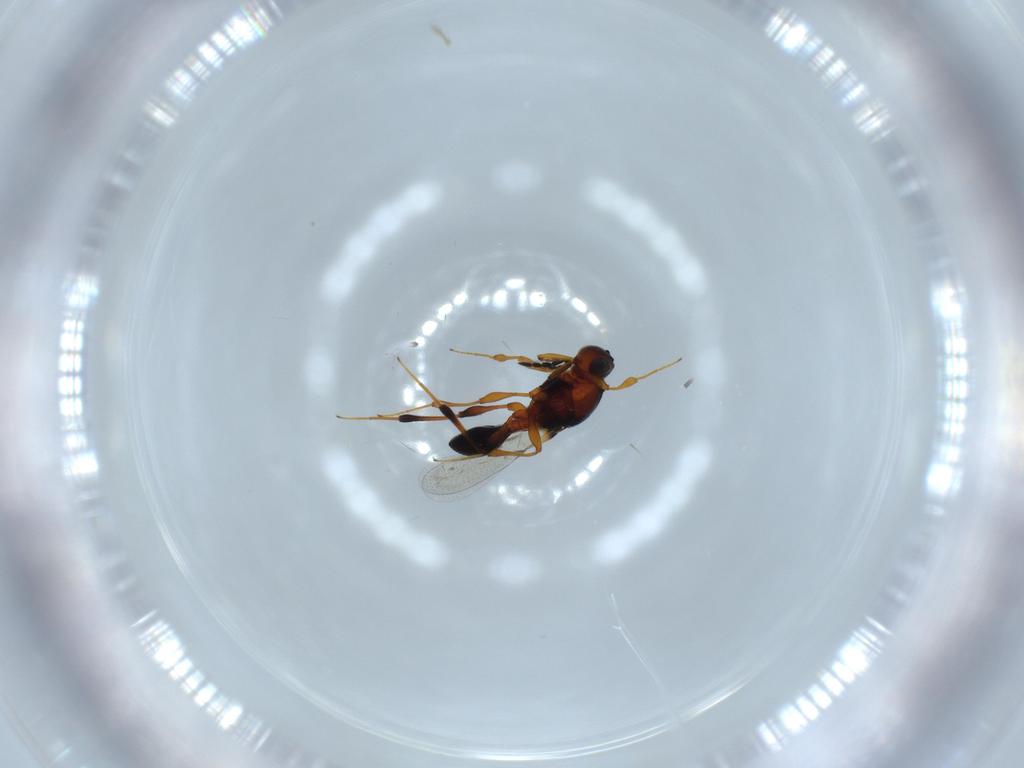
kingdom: Animalia
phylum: Arthropoda
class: Insecta
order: Hymenoptera
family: Platygastridae
